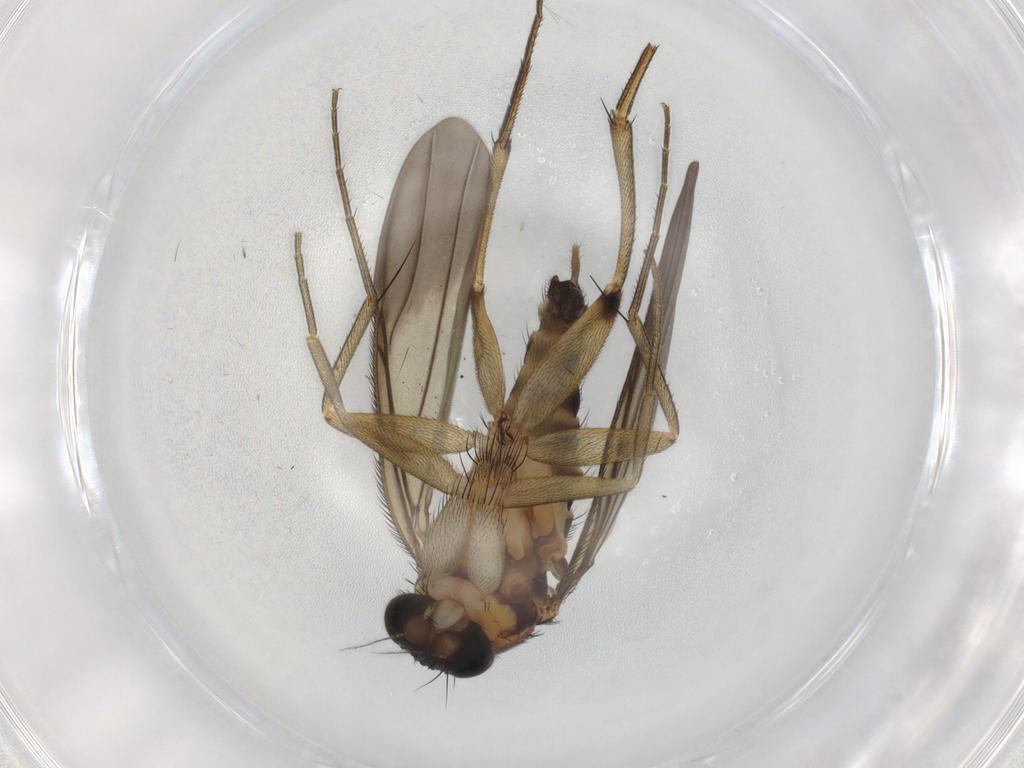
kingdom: Animalia
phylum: Arthropoda
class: Insecta
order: Diptera
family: Phoridae
